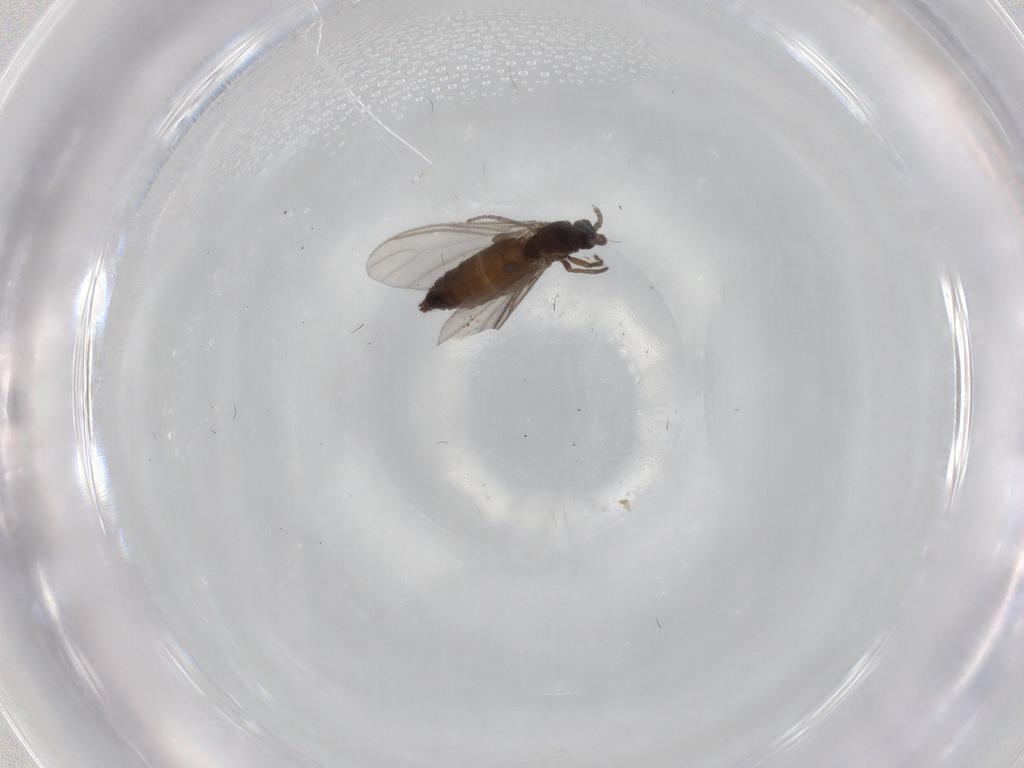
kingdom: Animalia
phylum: Arthropoda
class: Insecta
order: Diptera
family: Sciaridae
